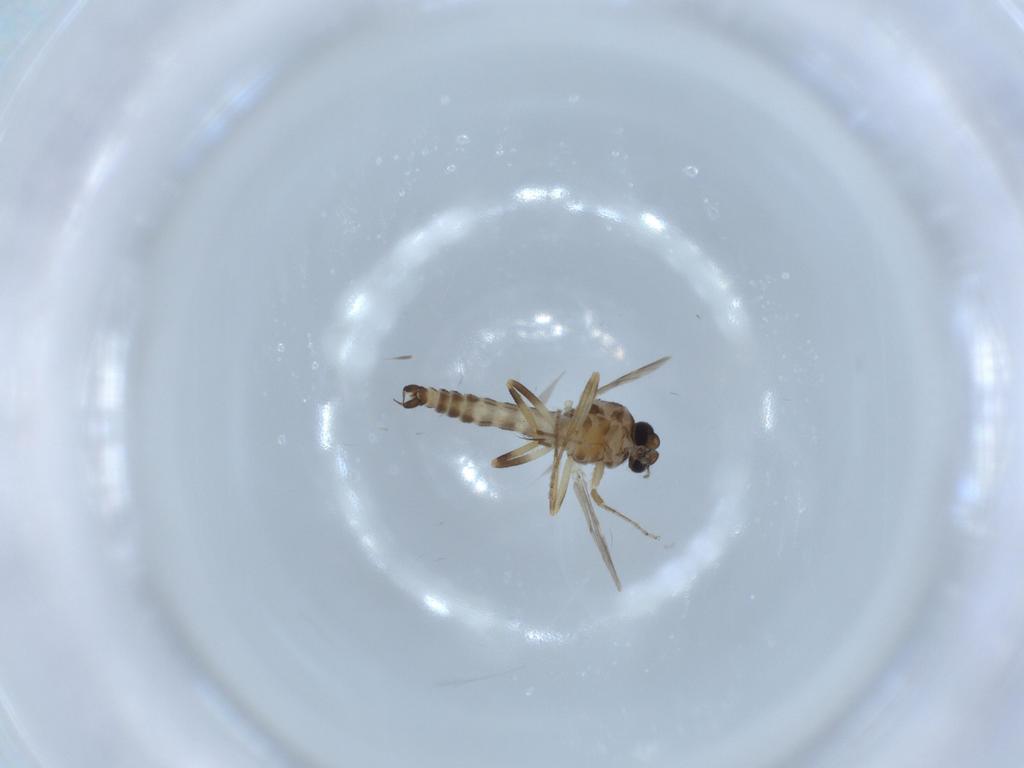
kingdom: Animalia
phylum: Arthropoda
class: Insecta
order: Diptera
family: Ceratopogonidae
